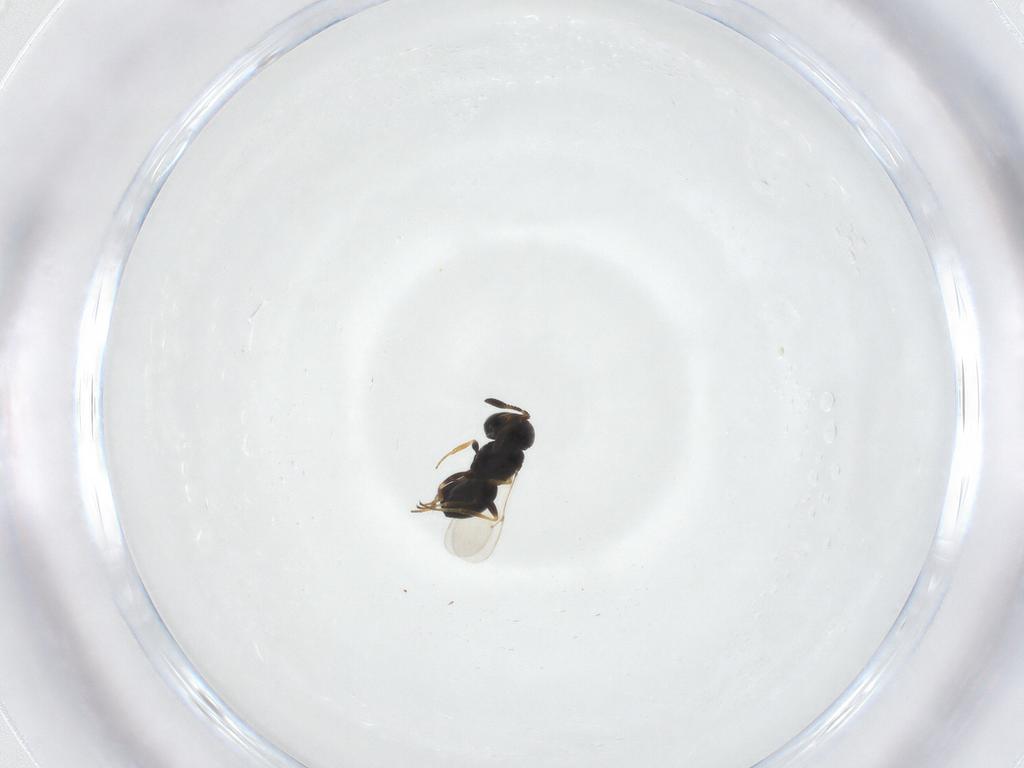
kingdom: Animalia
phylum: Arthropoda
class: Insecta
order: Hymenoptera
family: Scelionidae
